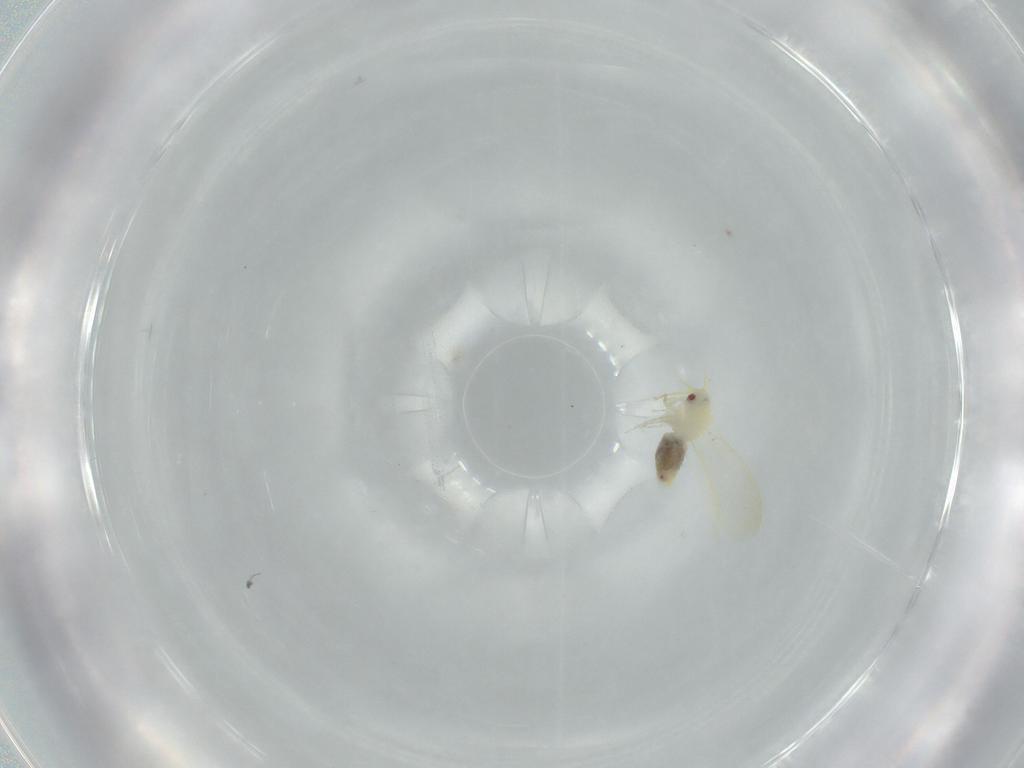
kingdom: Animalia
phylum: Arthropoda
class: Insecta
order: Hemiptera
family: Aleyrodidae
